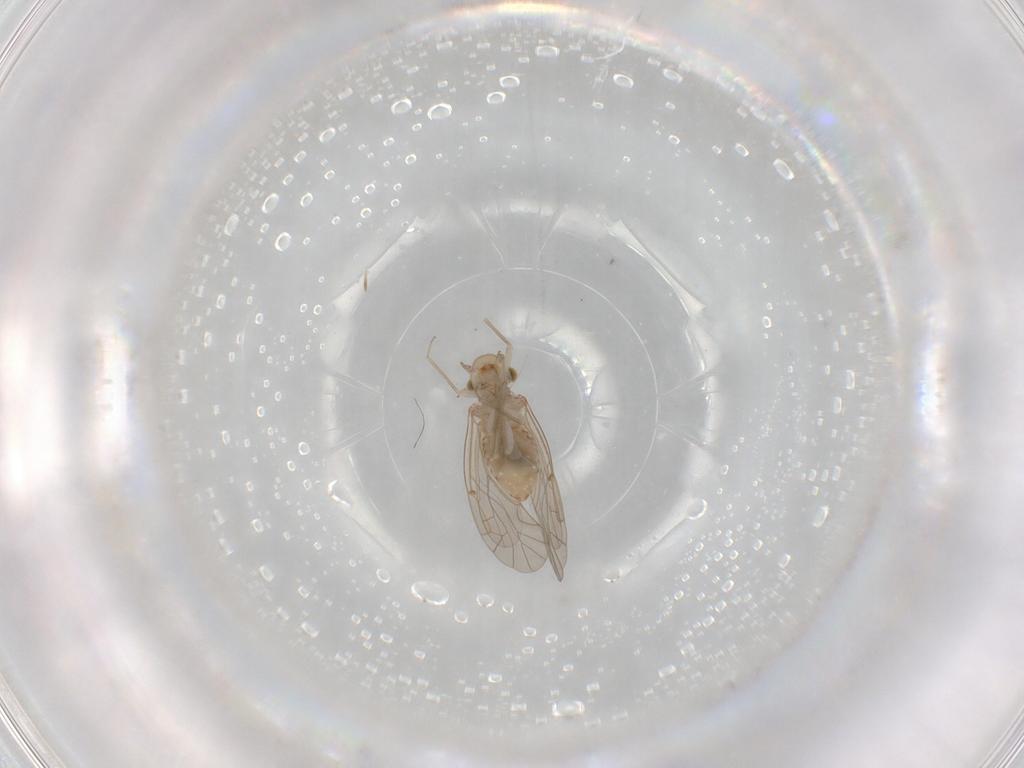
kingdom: Animalia
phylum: Arthropoda
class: Insecta
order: Psocodea
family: Lachesillidae
